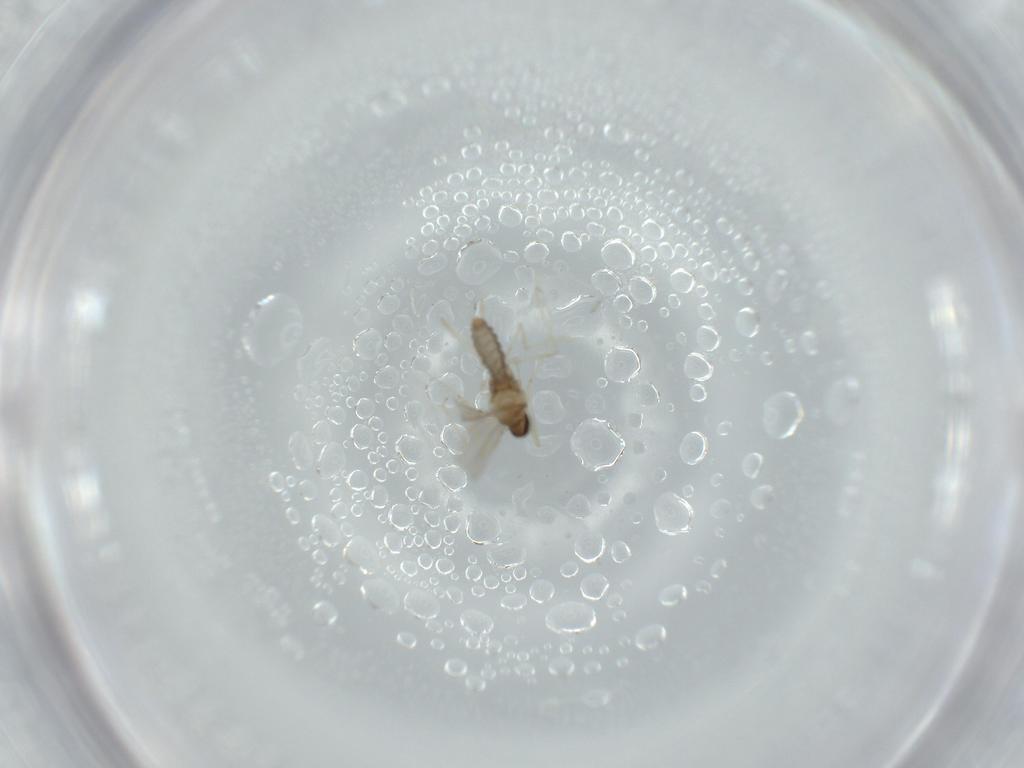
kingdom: Animalia
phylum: Arthropoda
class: Insecta
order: Diptera
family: Cecidomyiidae
